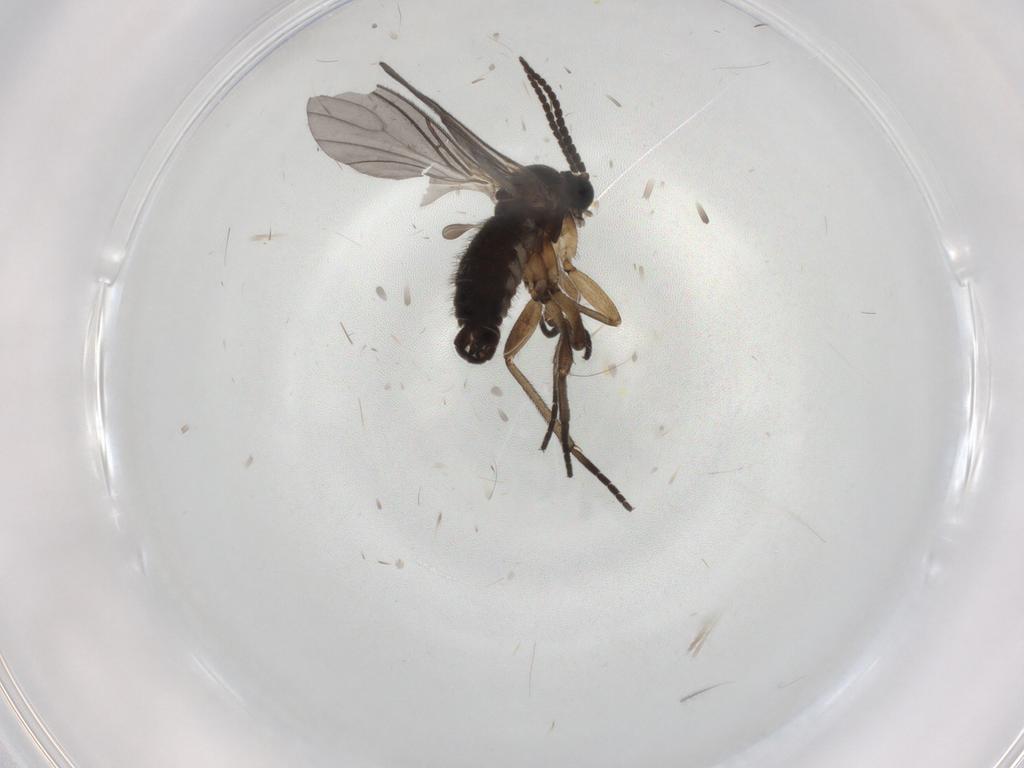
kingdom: Animalia
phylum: Arthropoda
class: Insecta
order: Diptera
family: Sciaridae
